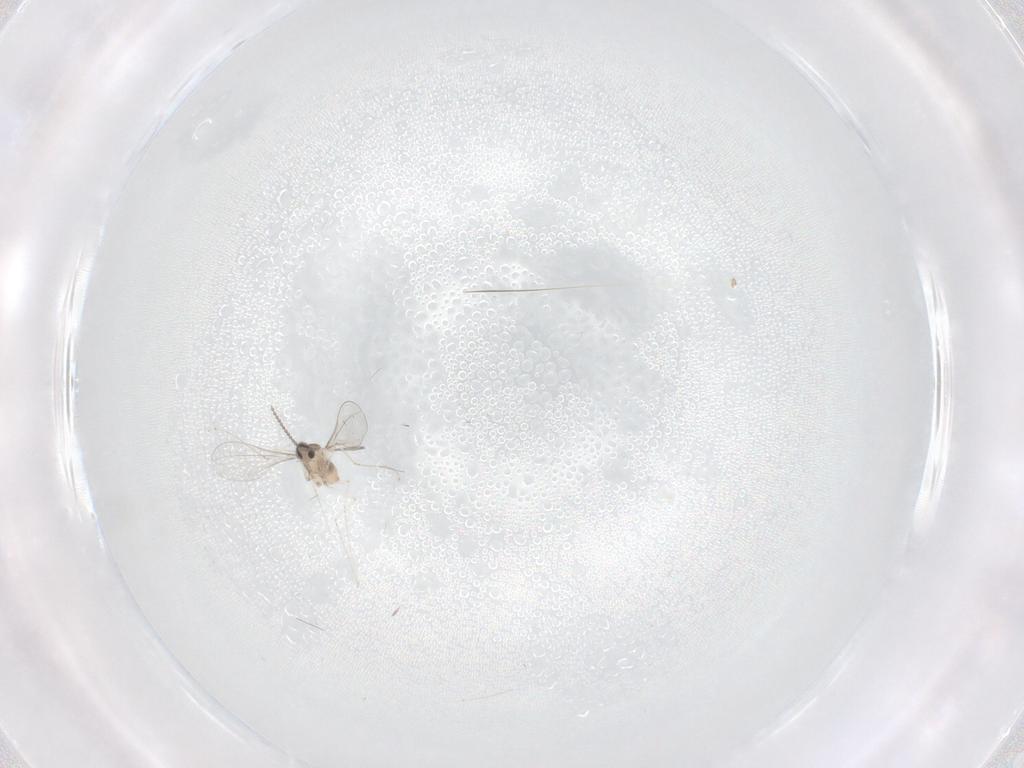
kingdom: Animalia
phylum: Arthropoda
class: Insecta
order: Diptera
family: Cecidomyiidae
